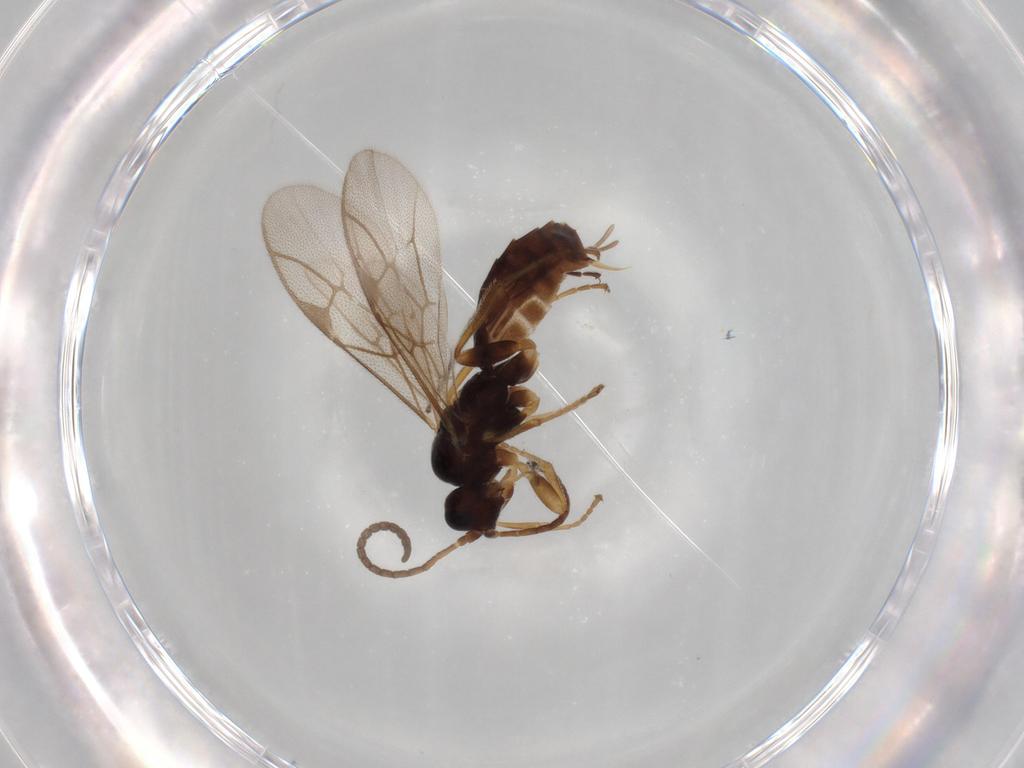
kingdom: Animalia
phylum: Arthropoda
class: Insecta
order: Hymenoptera
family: Ichneumonidae
